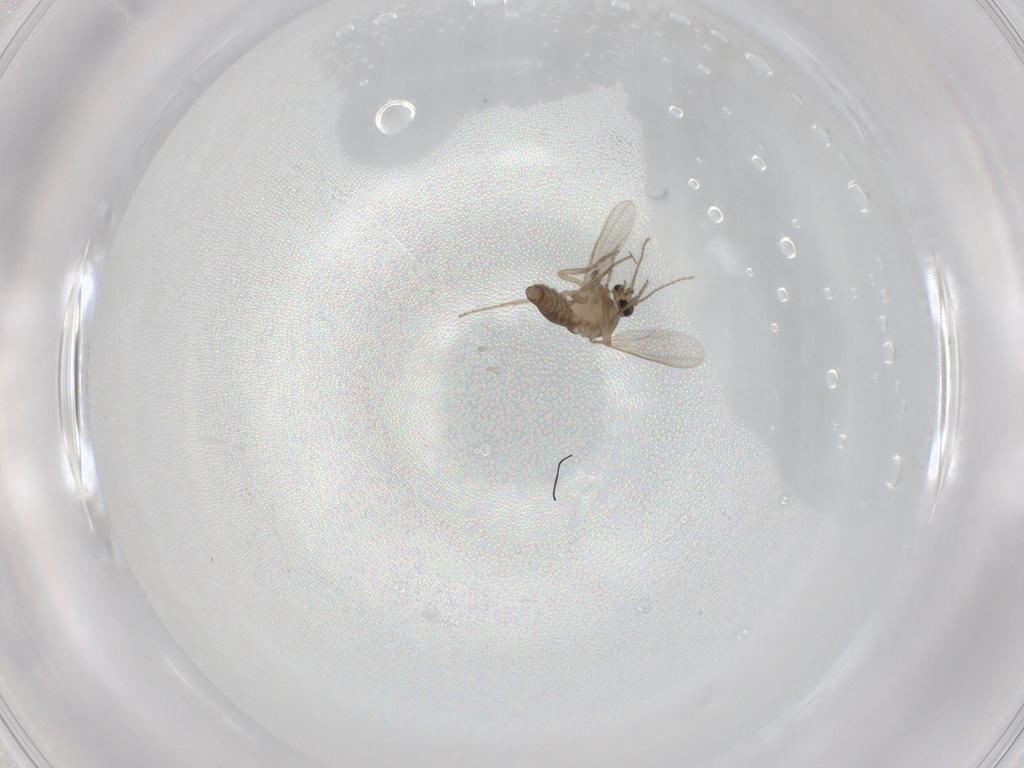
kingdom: Animalia
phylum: Arthropoda
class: Insecta
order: Diptera
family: Ceratopogonidae
